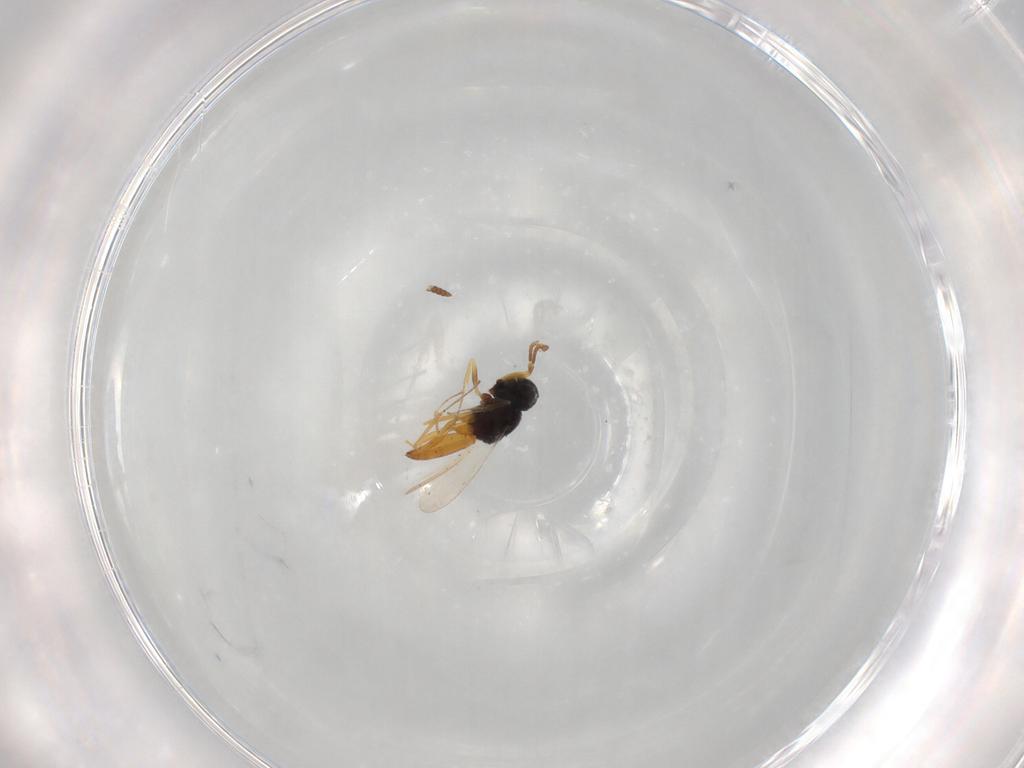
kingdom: Animalia
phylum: Arthropoda
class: Insecta
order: Hymenoptera
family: Scelionidae
